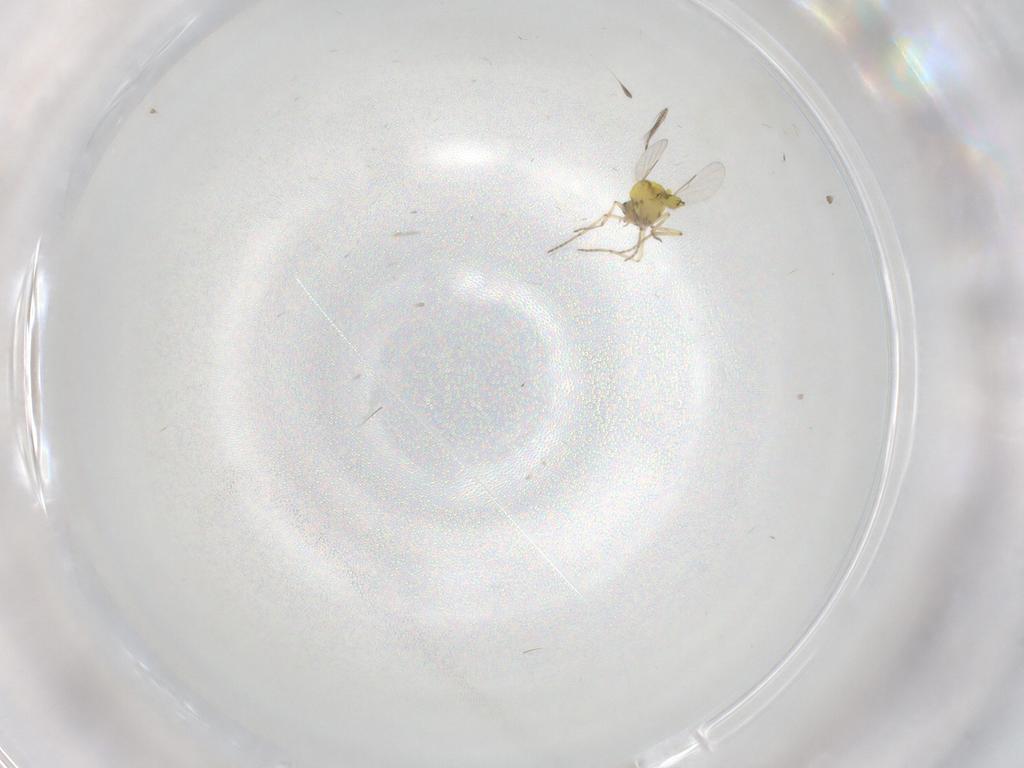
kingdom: Animalia
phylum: Arthropoda
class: Insecta
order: Diptera
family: Ceratopogonidae
